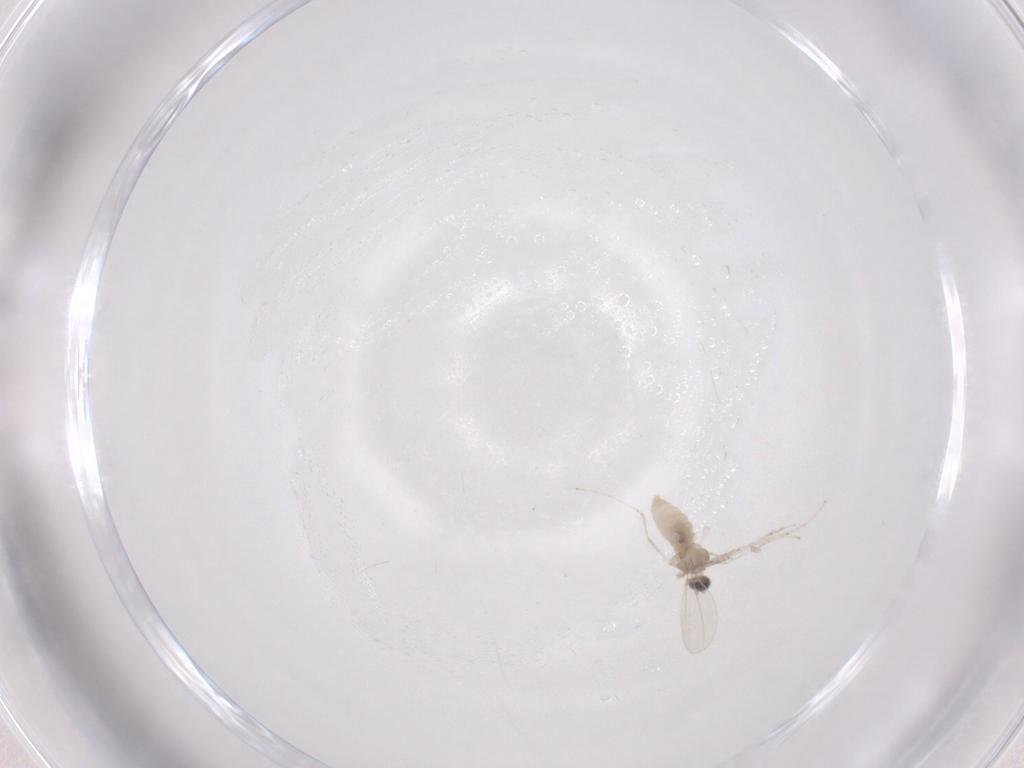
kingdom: Animalia
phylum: Arthropoda
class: Insecta
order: Diptera
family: Cecidomyiidae
